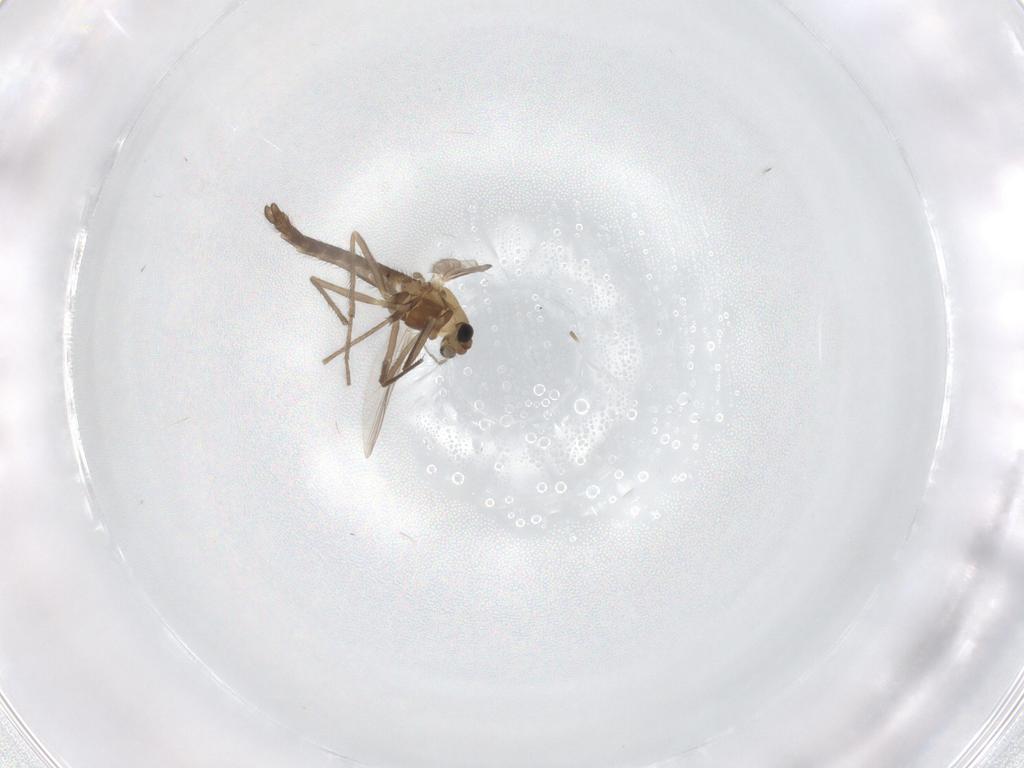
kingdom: Animalia
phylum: Arthropoda
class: Insecta
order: Diptera
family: Chironomidae
